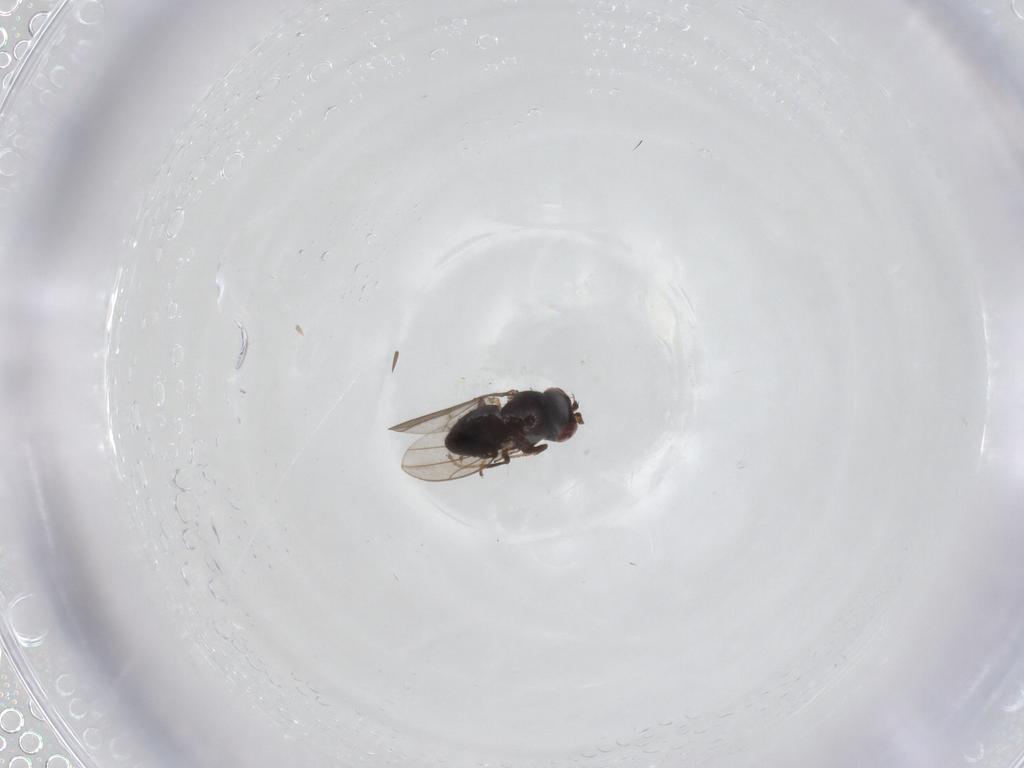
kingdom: Animalia
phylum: Arthropoda
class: Insecta
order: Diptera
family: Ephydridae
